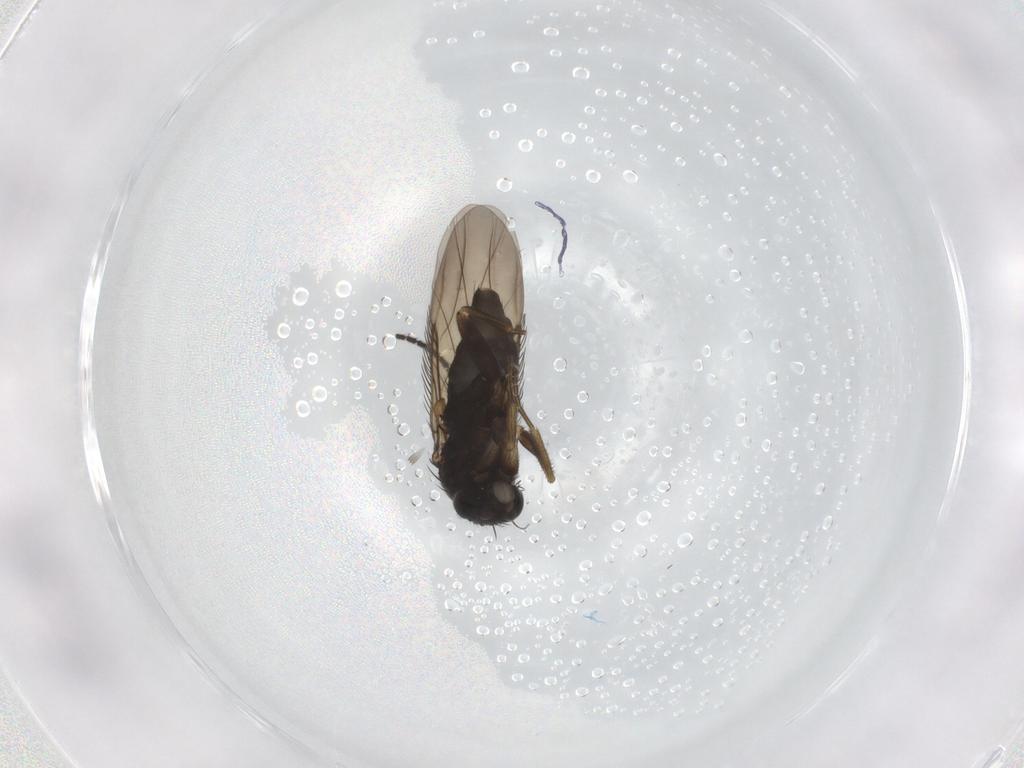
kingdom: Animalia
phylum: Arthropoda
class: Insecta
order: Diptera
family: Phoridae
